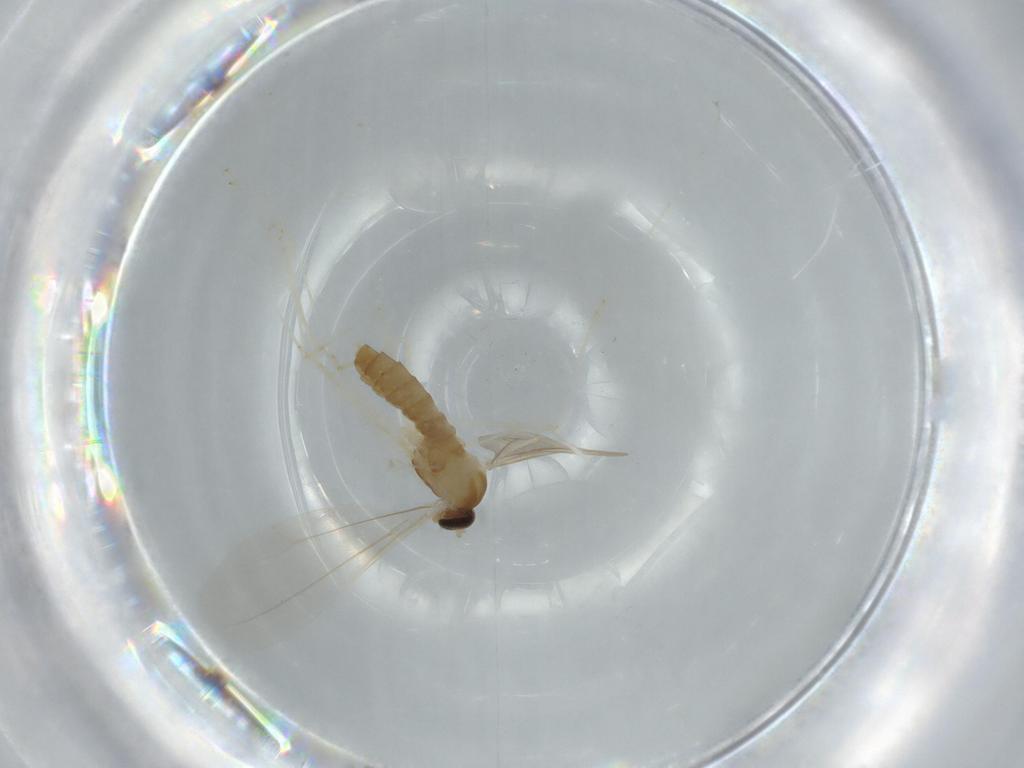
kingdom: Animalia
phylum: Arthropoda
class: Insecta
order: Diptera
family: Cecidomyiidae
